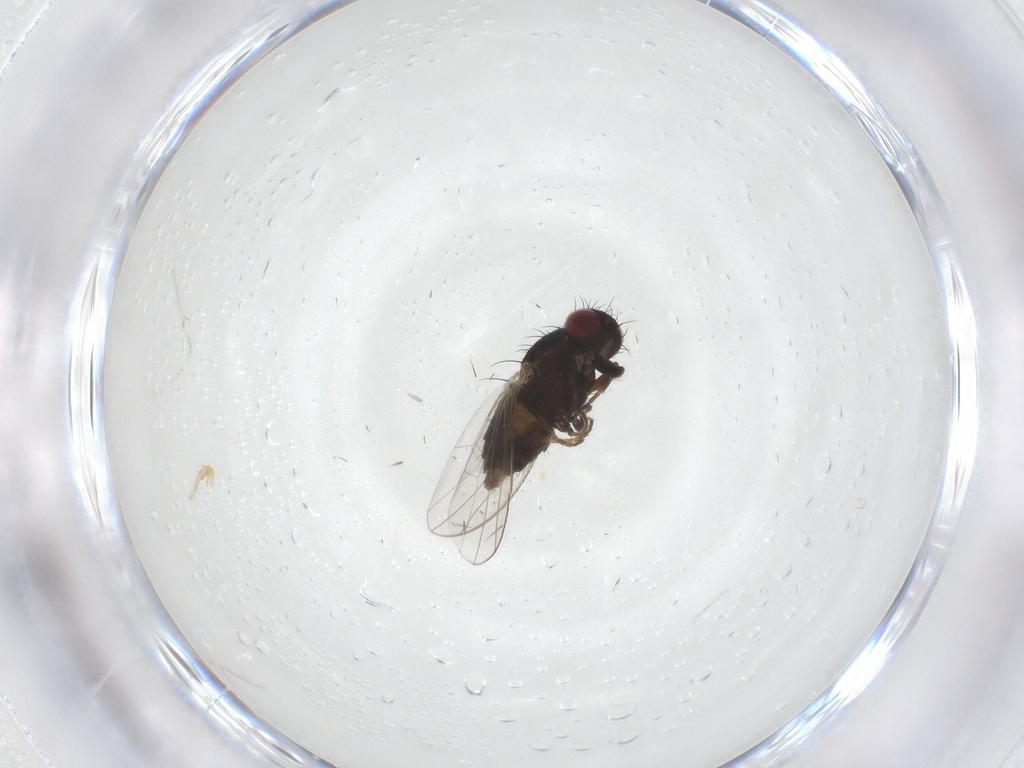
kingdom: Animalia
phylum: Arthropoda
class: Insecta
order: Diptera
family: Carnidae
